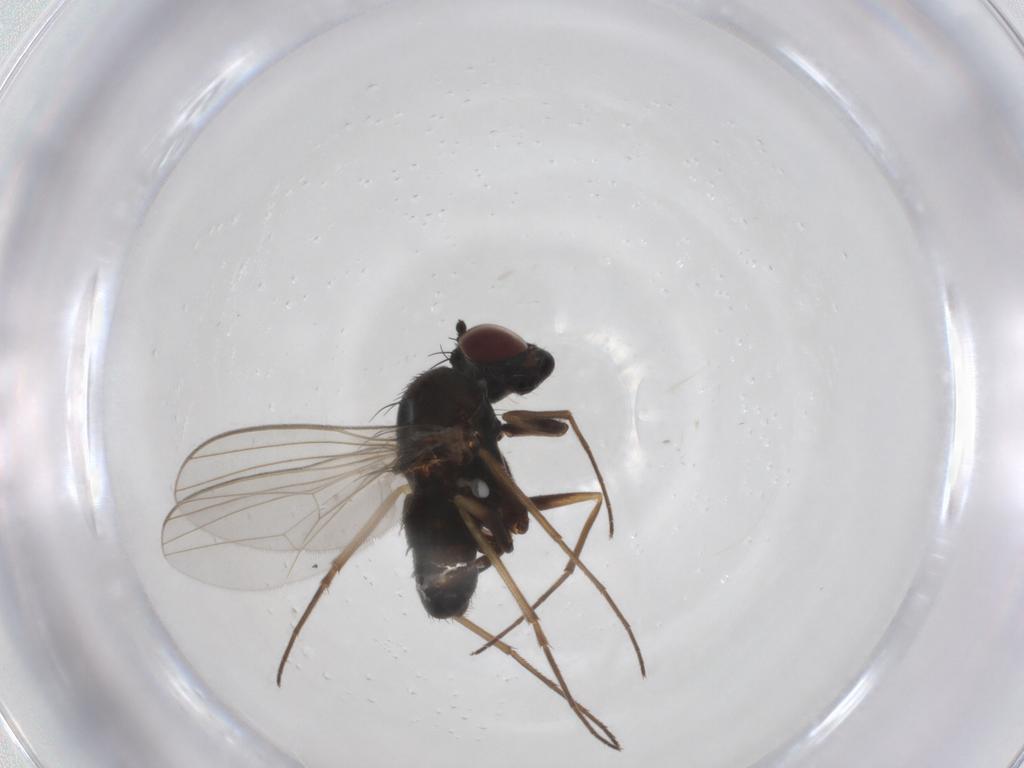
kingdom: Animalia
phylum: Arthropoda
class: Insecta
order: Diptera
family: Dolichopodidae
